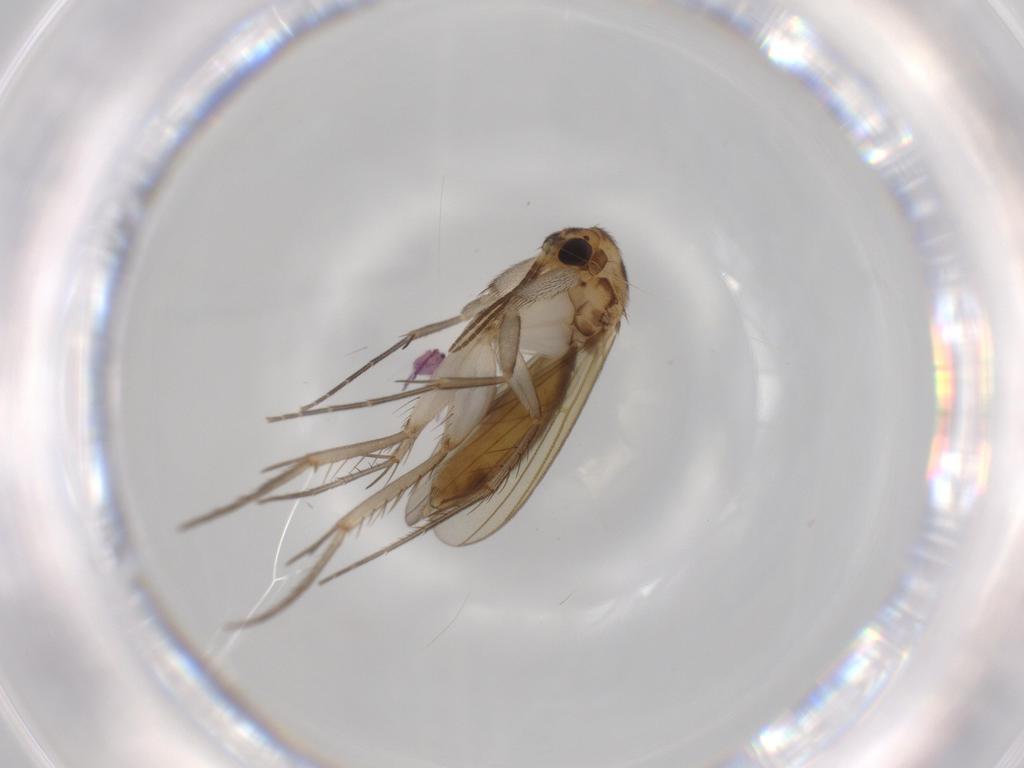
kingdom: Animalia
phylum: Arthropoda
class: Insecta
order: Diptera
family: Mycetophilidae
